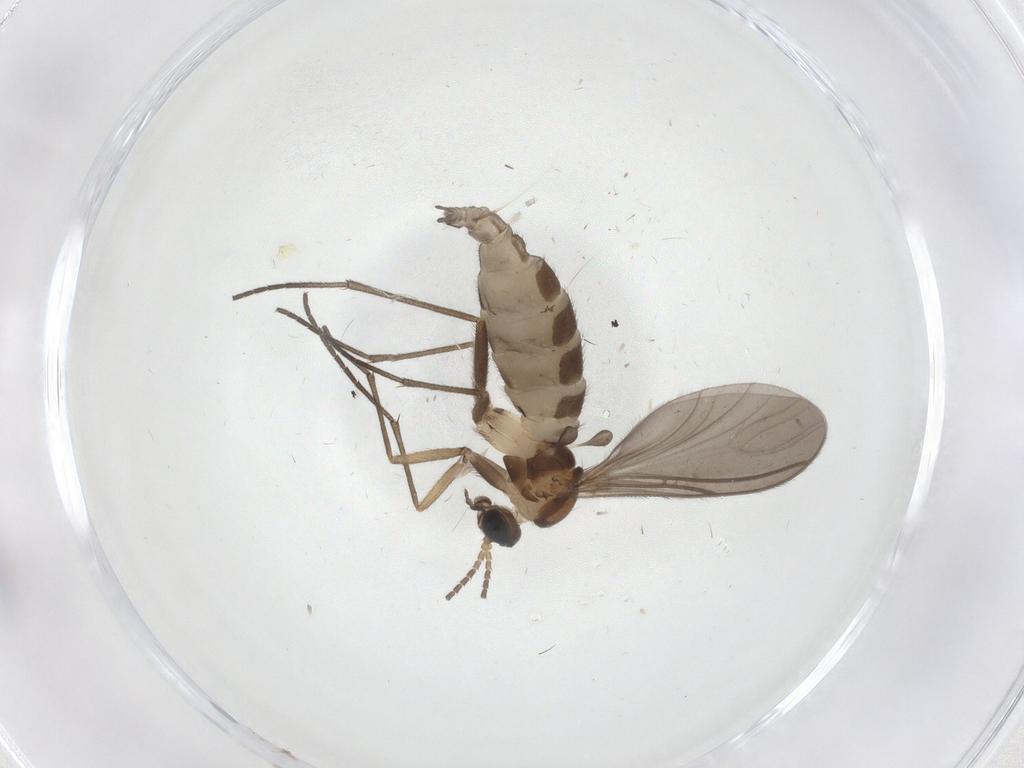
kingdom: Animalia
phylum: Arthropoda
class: Insecta
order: Diptera
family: Sciaridae
